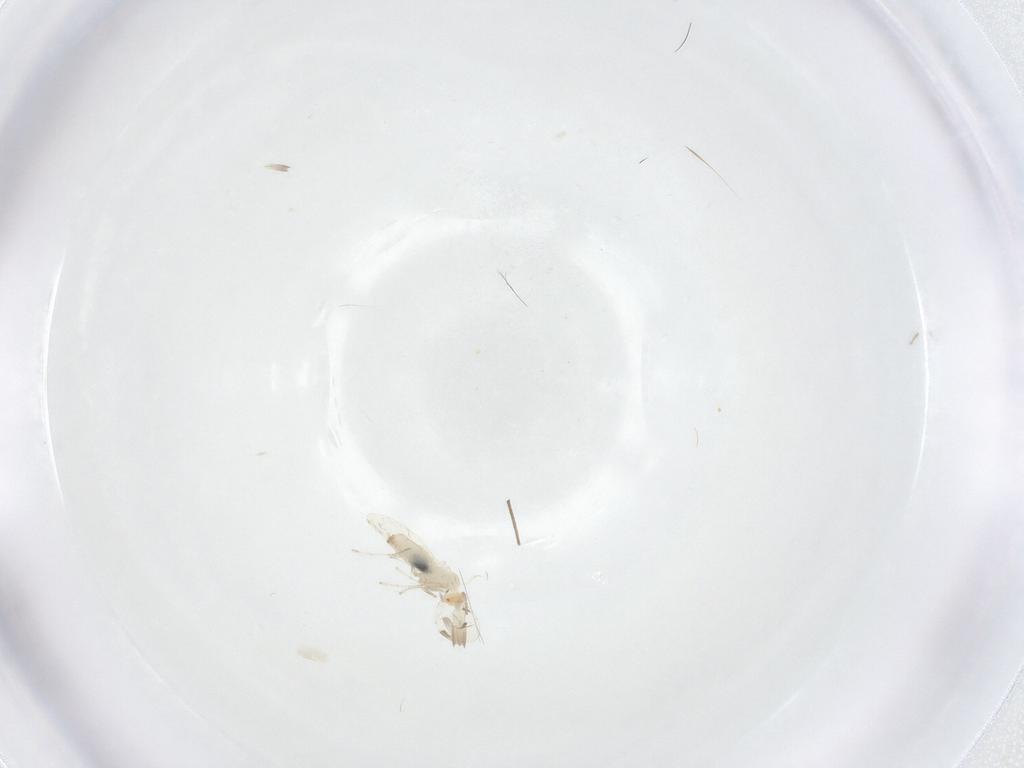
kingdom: Animalia
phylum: Arthropoda
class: Insecta
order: Diptera
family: Chironomidae
